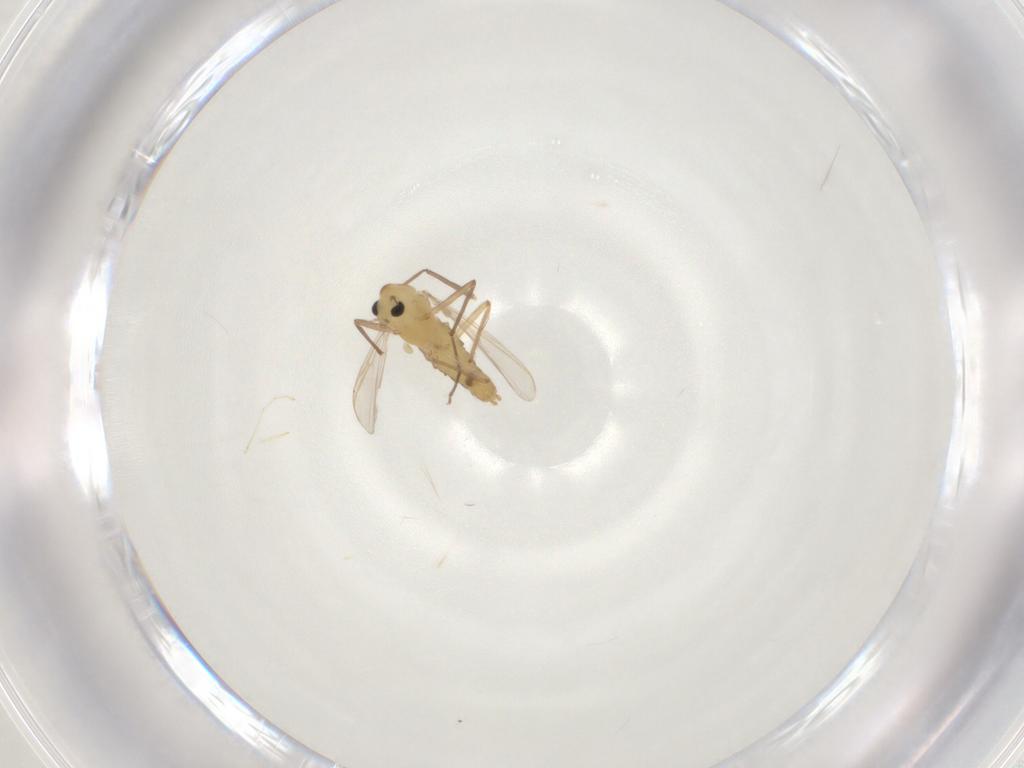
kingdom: Animalia
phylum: Arthropoda
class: Insecta
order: Diptera
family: Chironomidae
